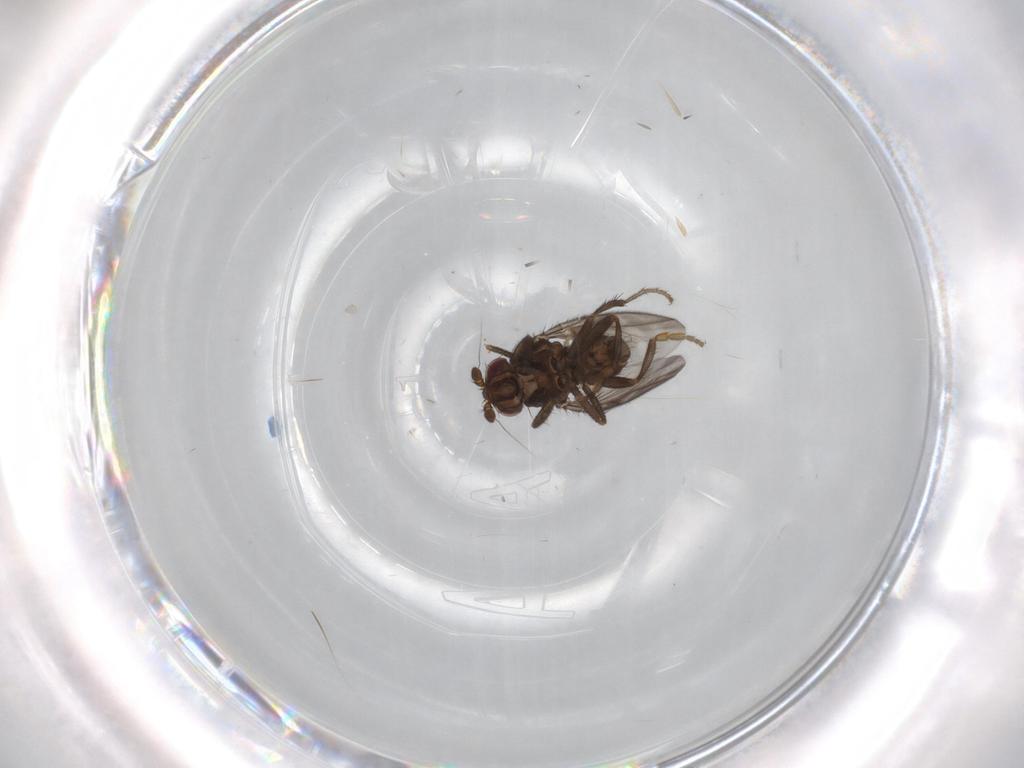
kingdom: Animalia
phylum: Arthropoda
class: Insecta
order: Diptera
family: Sphaeroceridae
